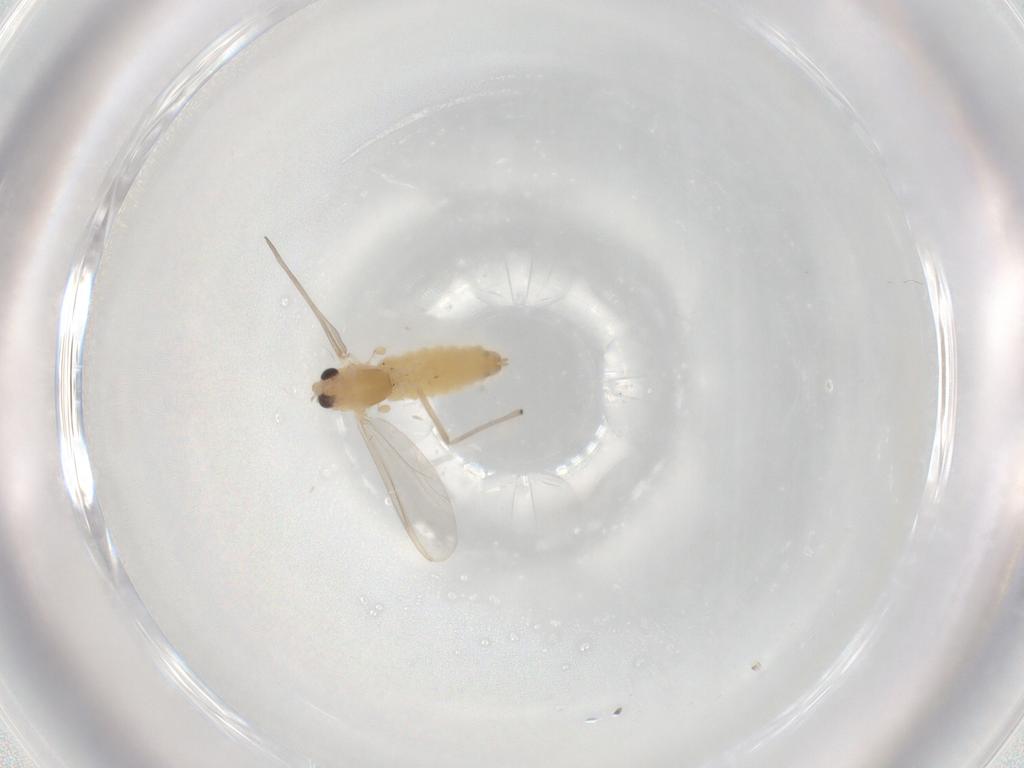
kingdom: Animalia
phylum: Arthropoda
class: Insecta
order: Diptera
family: Chironomidae
